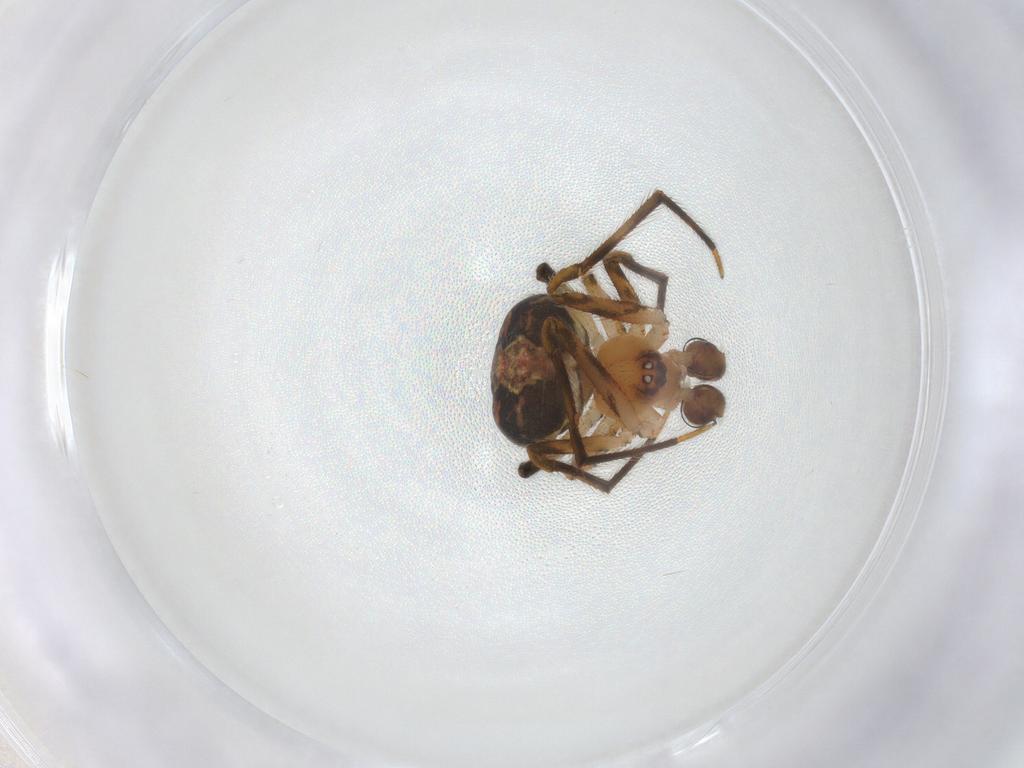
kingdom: Animalia
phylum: Arthropoda
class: Arachnida
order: Araneae
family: Theridiidae
